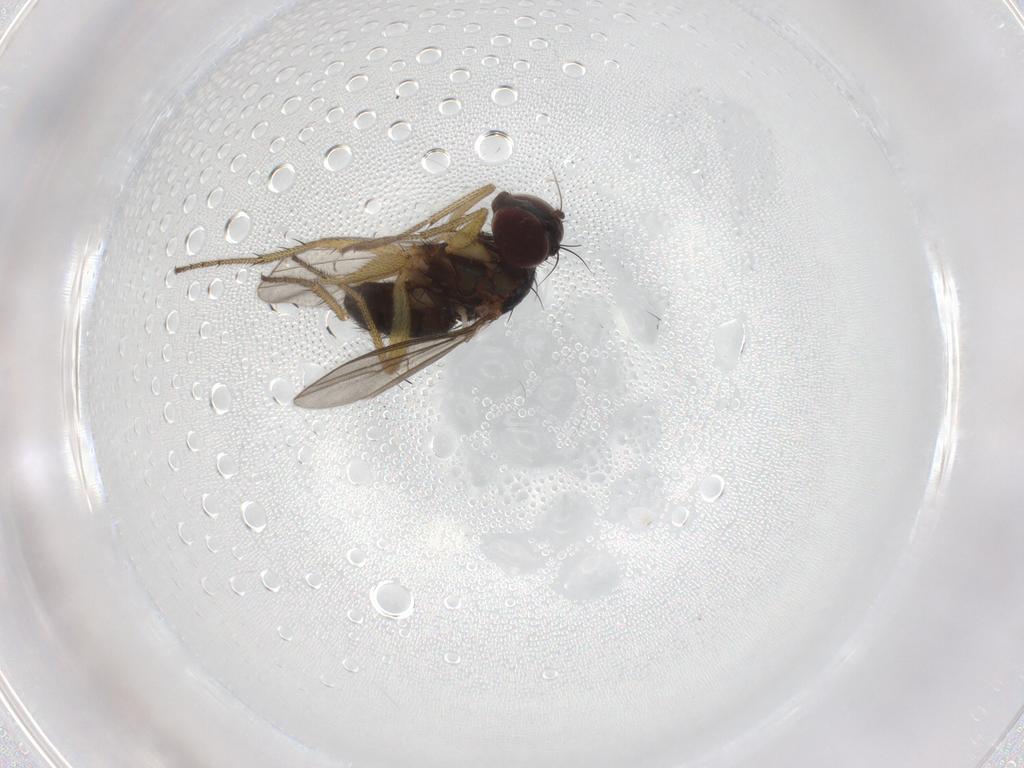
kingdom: Animalia
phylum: Arthropoda
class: Insecta
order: Diptera
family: Chironomidae
